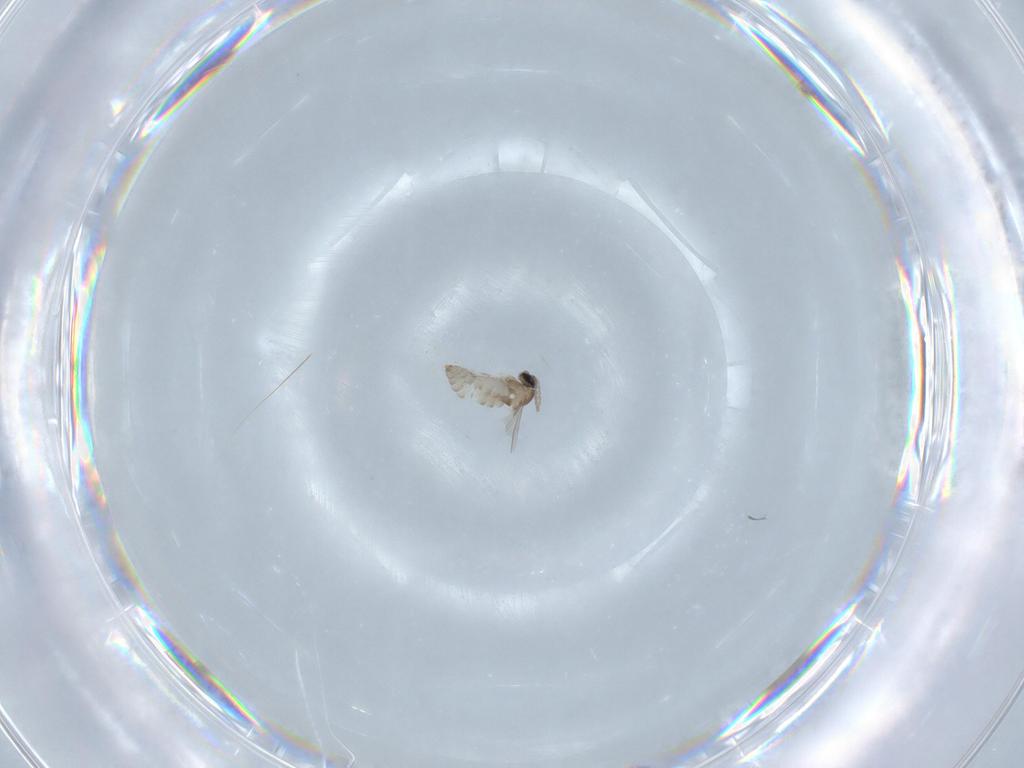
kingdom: Animalia
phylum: Arthropoda
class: Insecta
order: Diptera
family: Cecidomyiidae
